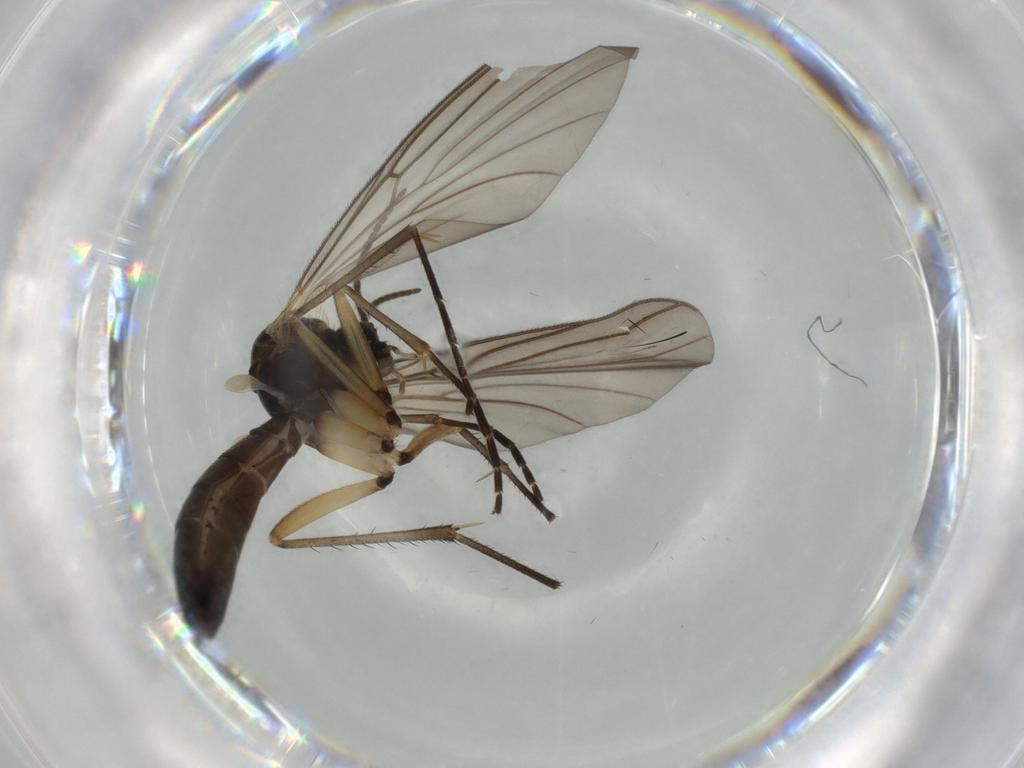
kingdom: Animalia
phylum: Arthropoda
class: Insecta
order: Diptera
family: Mycetophilidae
